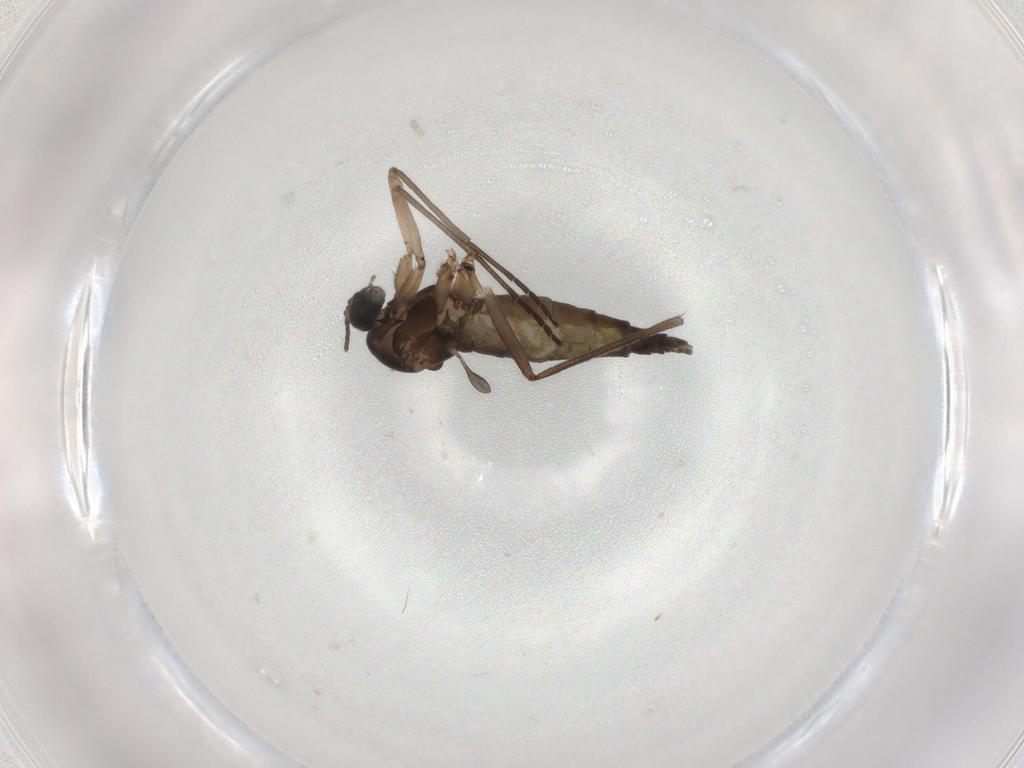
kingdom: Animalia
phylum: Arthropoda
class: Insecta
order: Diptera
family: Sciaridae
